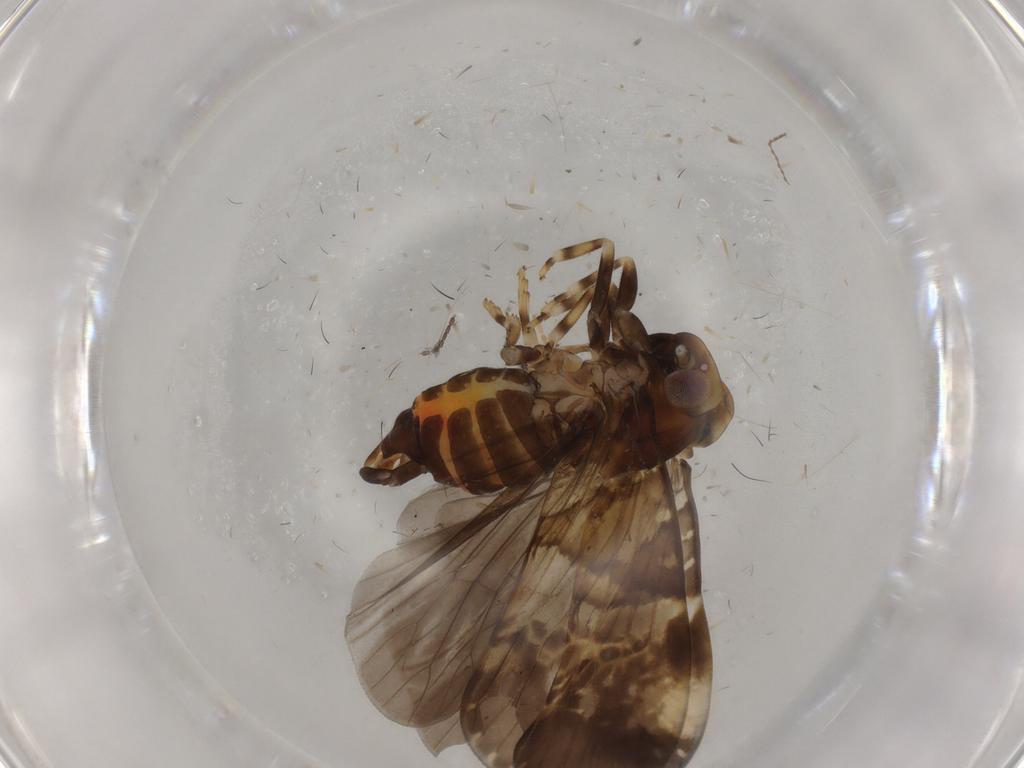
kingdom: Animalia
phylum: Arthropoda
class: Insecta
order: Hemiptera
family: Cixiidae
